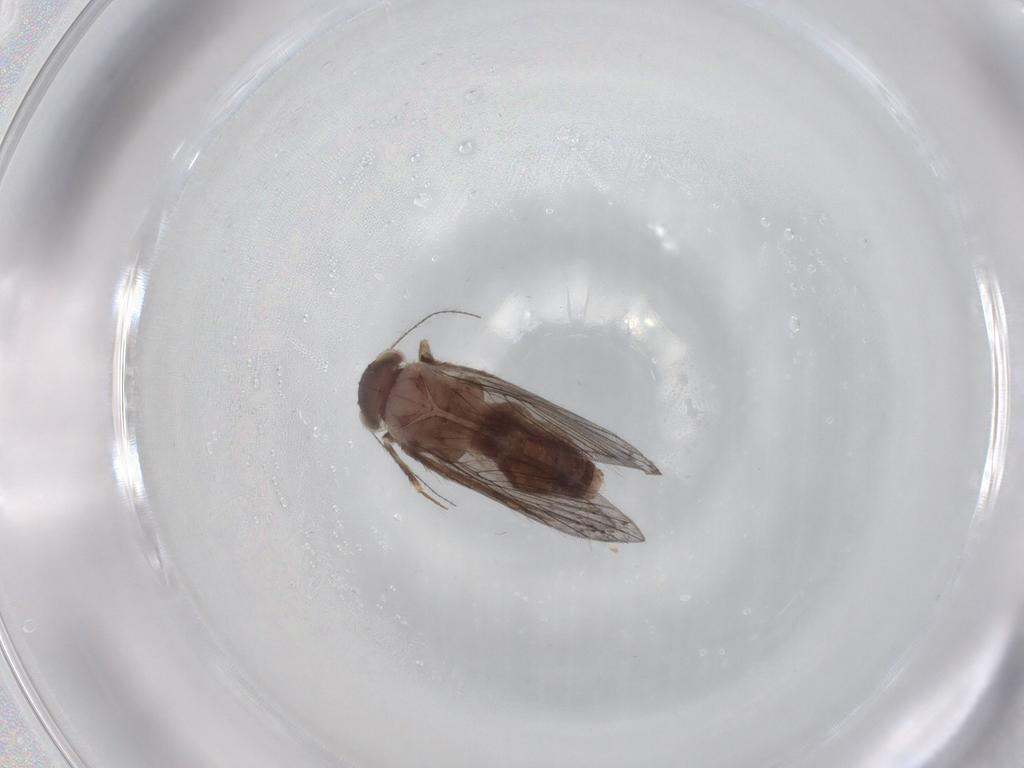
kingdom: Animalia
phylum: Arthropoda
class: Insecta
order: Psocodea
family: Lepidopsocidae
